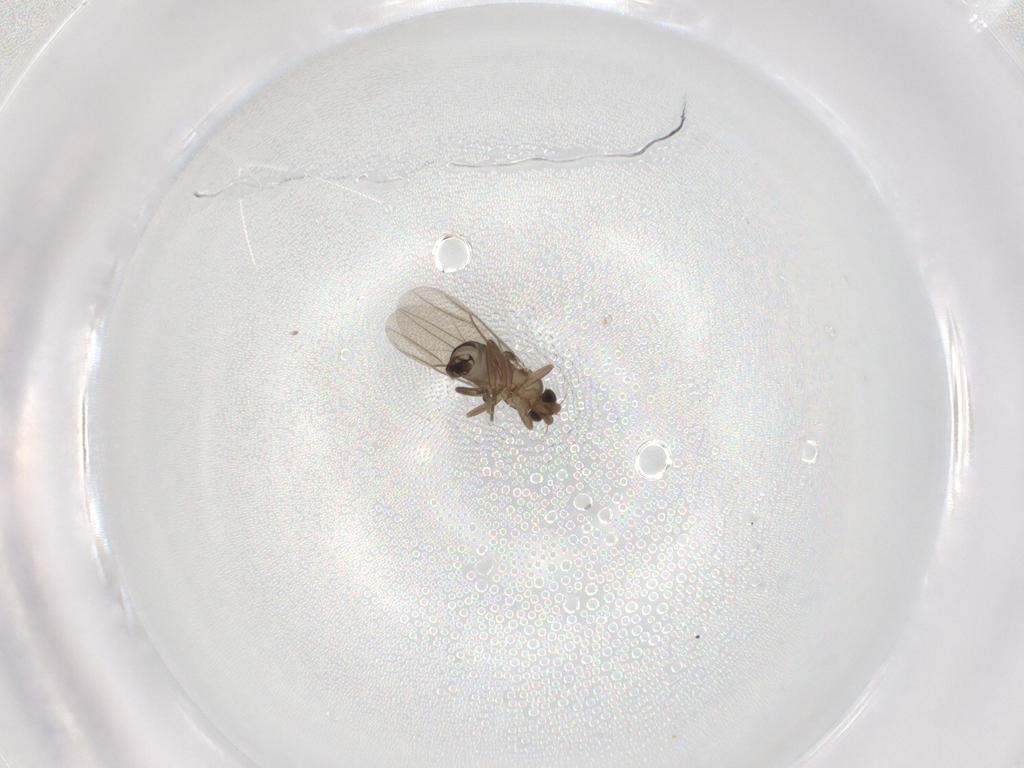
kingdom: Animalia
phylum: Arthropoda
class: Insecta
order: Diptera
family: Phoridae
